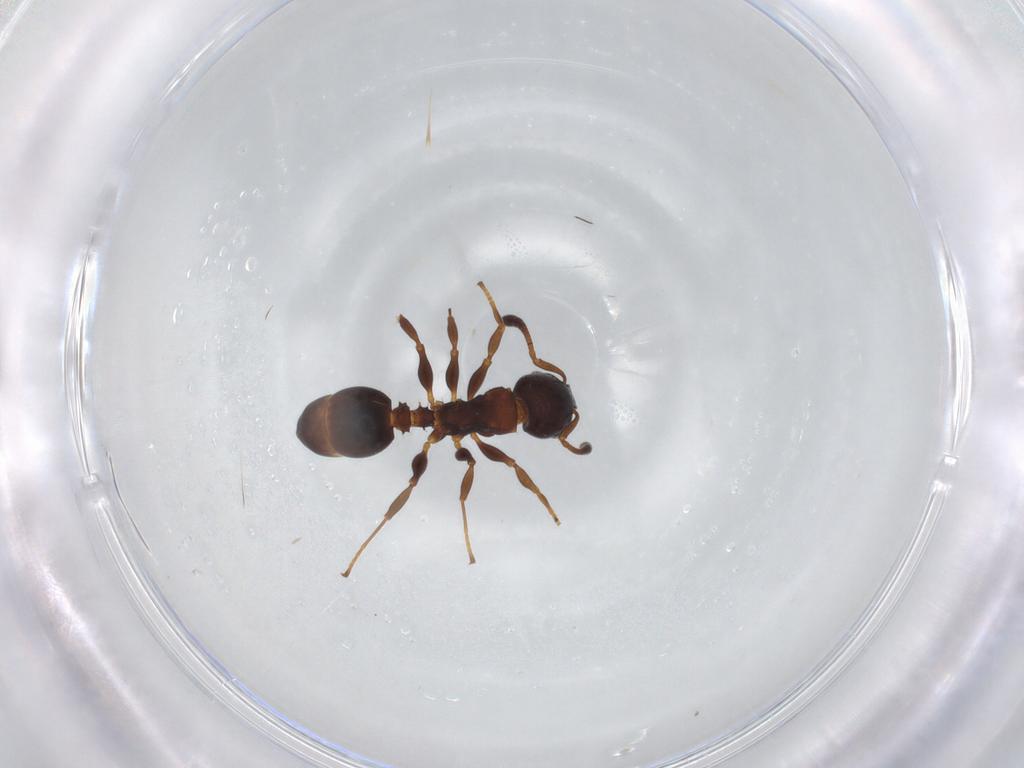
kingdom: Animalia
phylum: Arthropoda
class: Insecta
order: Hymenoptera
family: Formicidae
